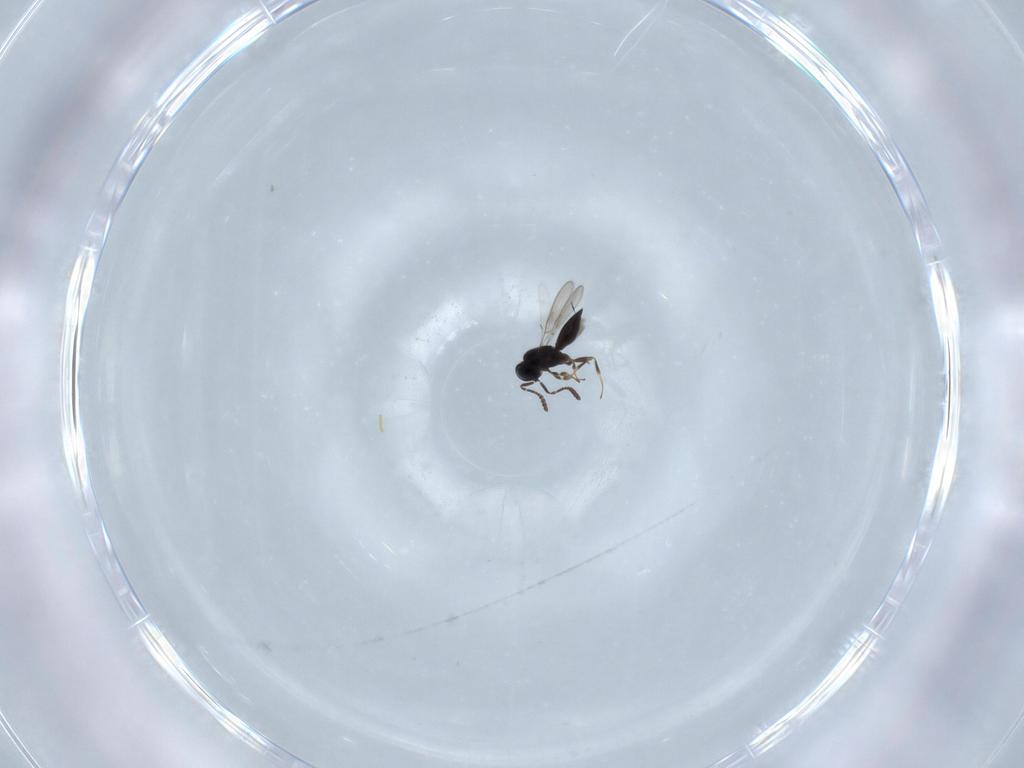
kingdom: Animalia
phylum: Arthropoda
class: Insecta
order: Hymenoptera
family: Scelionidae
